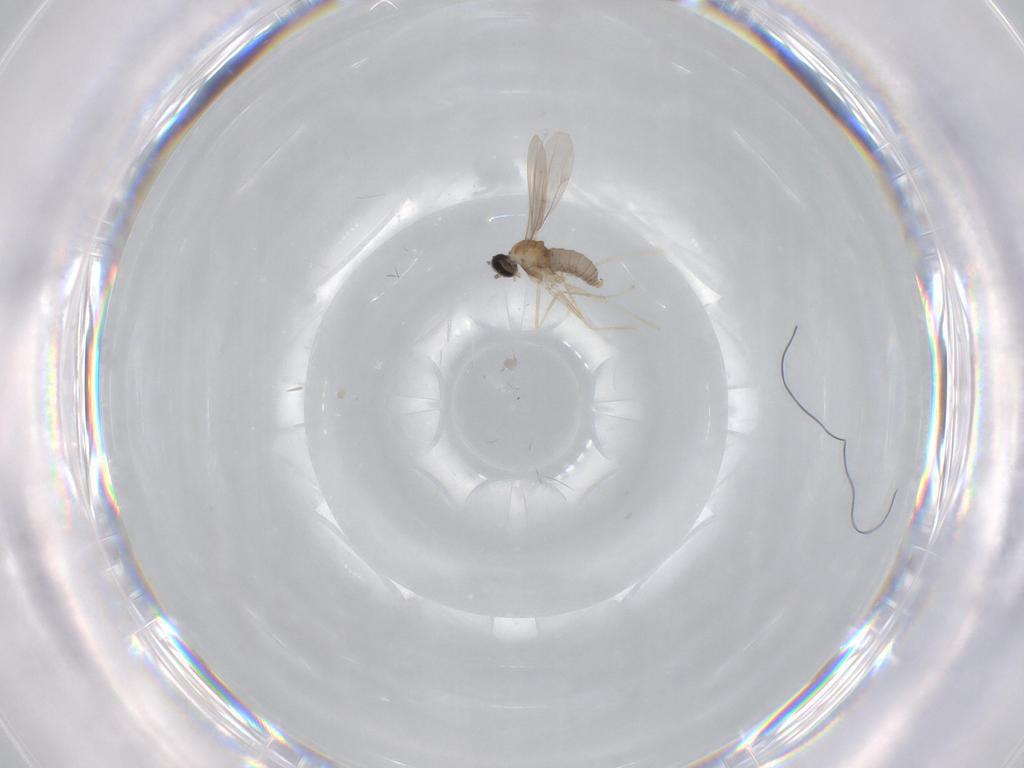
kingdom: Animalia
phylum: Arthropoda
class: Insecta
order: Diptera
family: Cecidomyiidae
